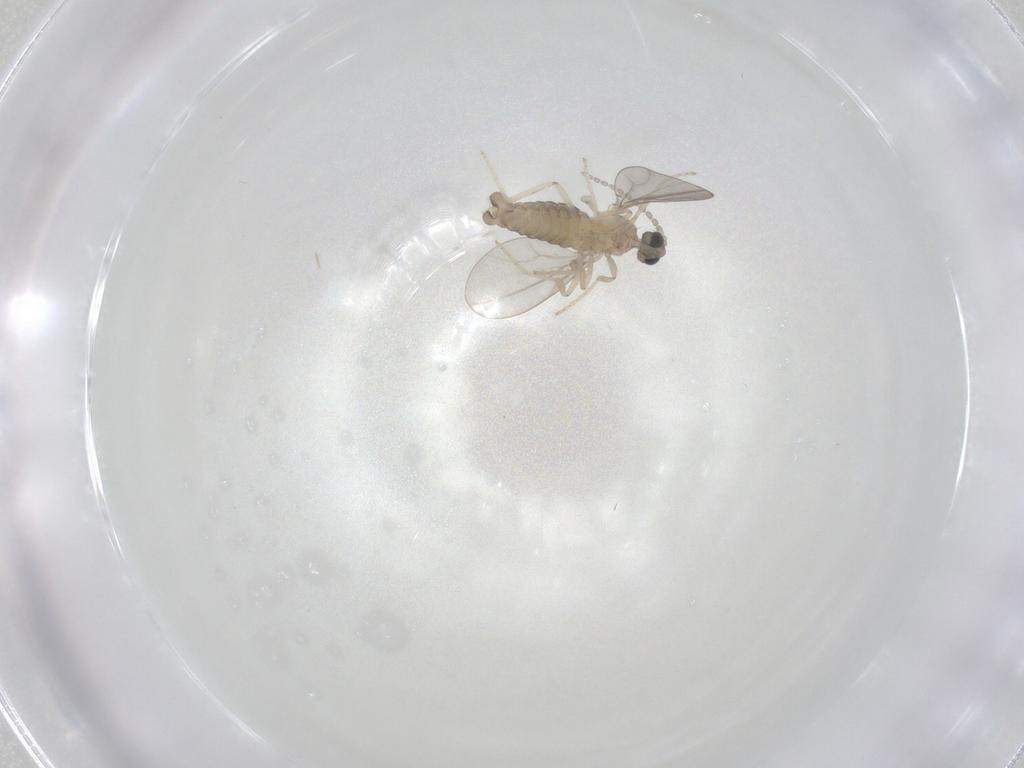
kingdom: Animalia
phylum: Arthropoda
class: Insecta
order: Diptera
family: Cecidomyiidae
